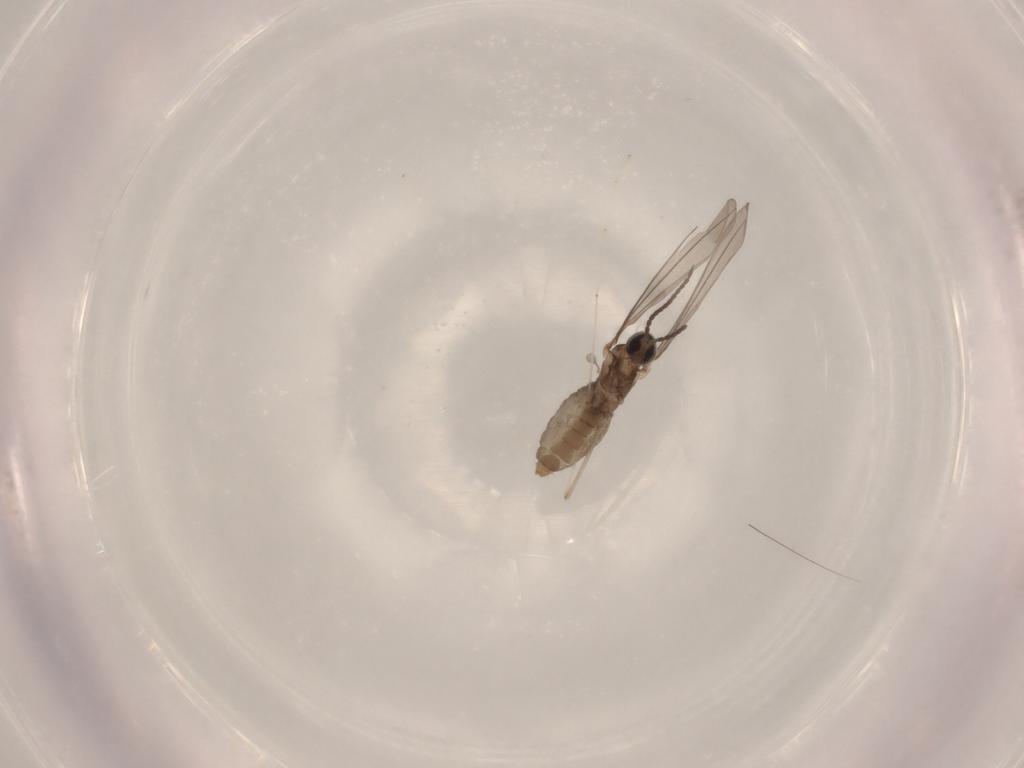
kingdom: Animalia
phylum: Arthropoda
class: Insecta
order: Diptera
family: Cecidomyiidae
